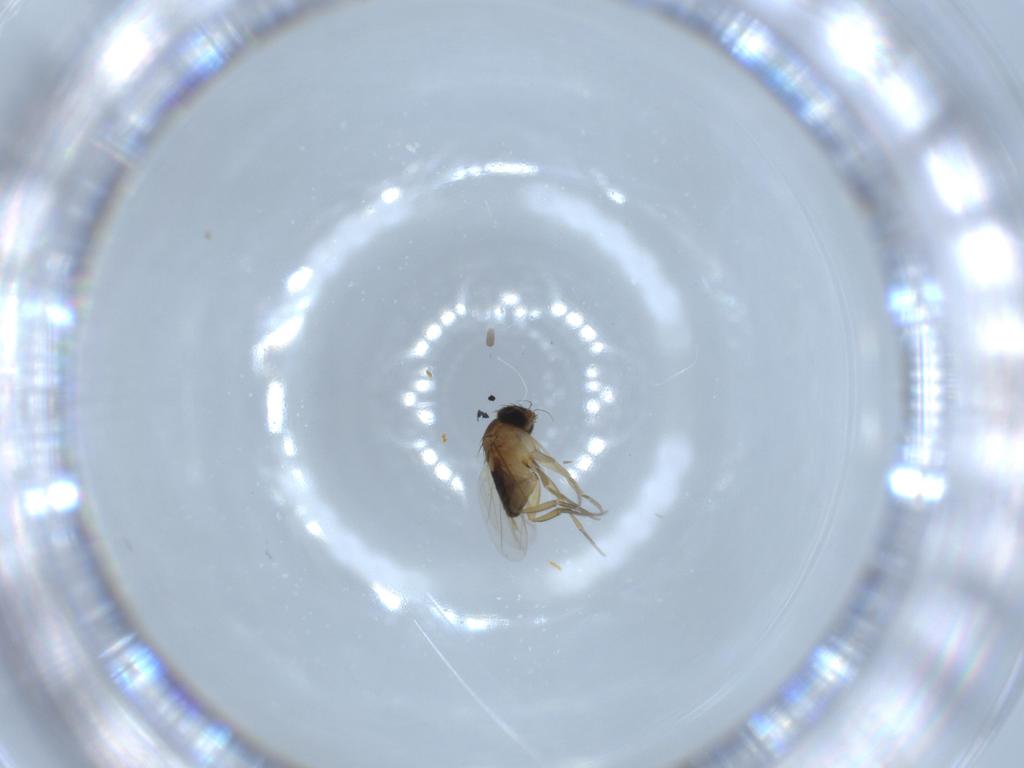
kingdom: Animalia
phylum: Arthropoda
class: Insecta
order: Diptera
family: Phoridae
